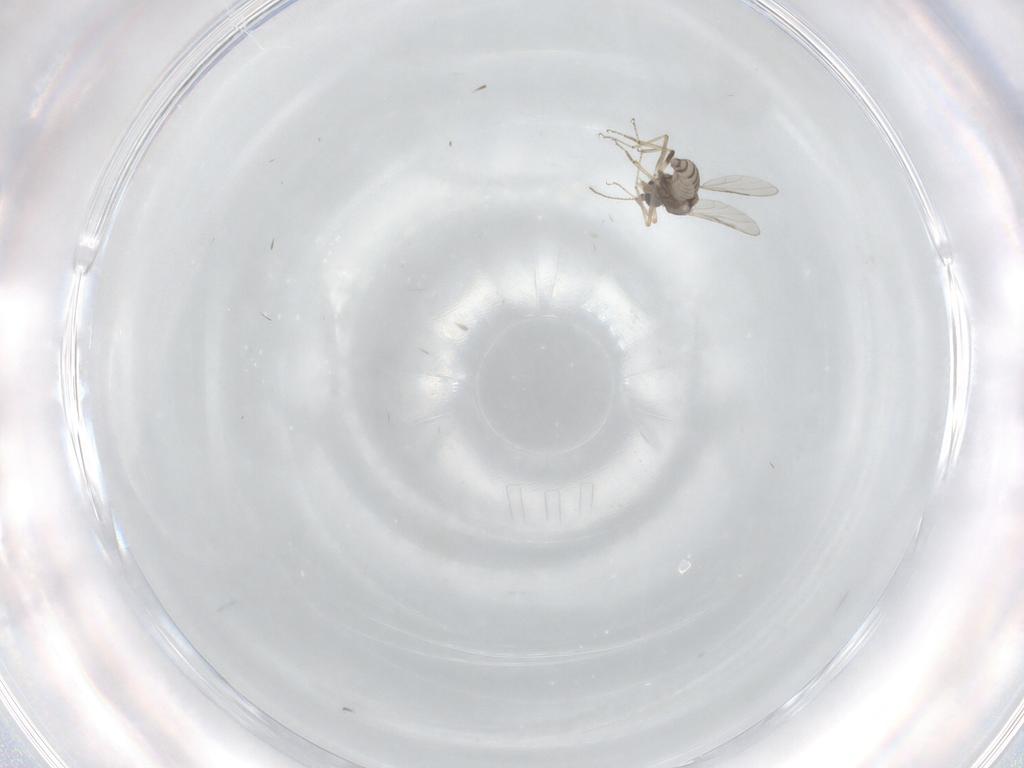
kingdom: Animalia
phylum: Arthropoda
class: Insecta
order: Diptera
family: Ceratopogonidae
